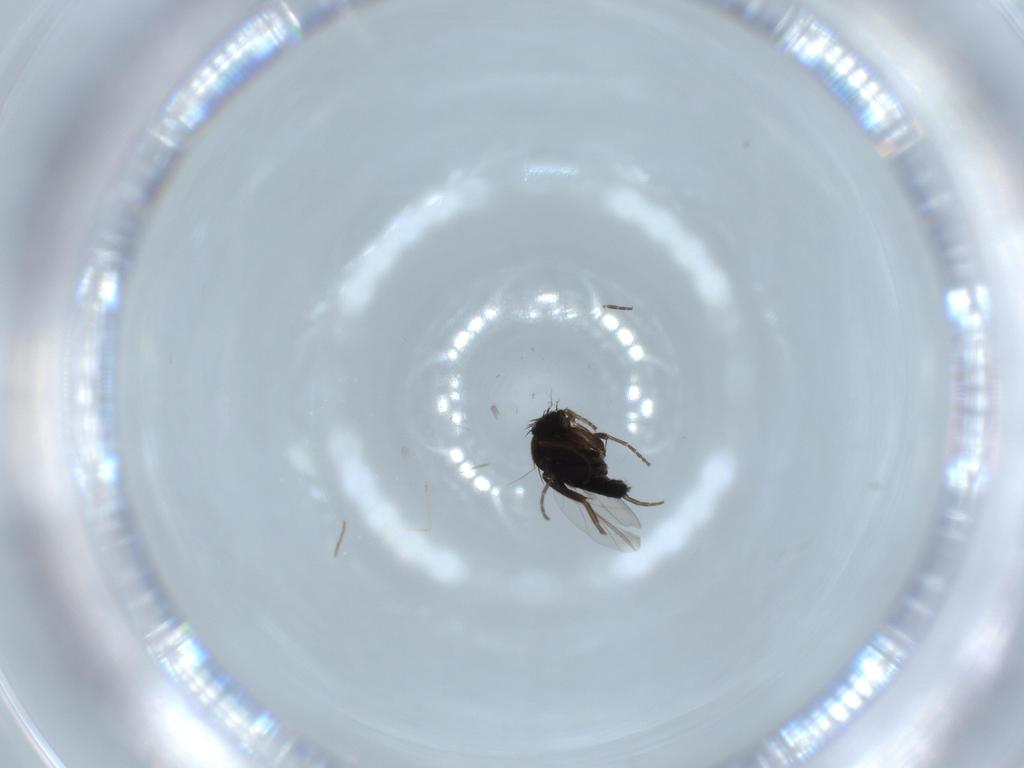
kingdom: Animalia
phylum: Arthropoda
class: Insecta
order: Diptera
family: Phoridae
